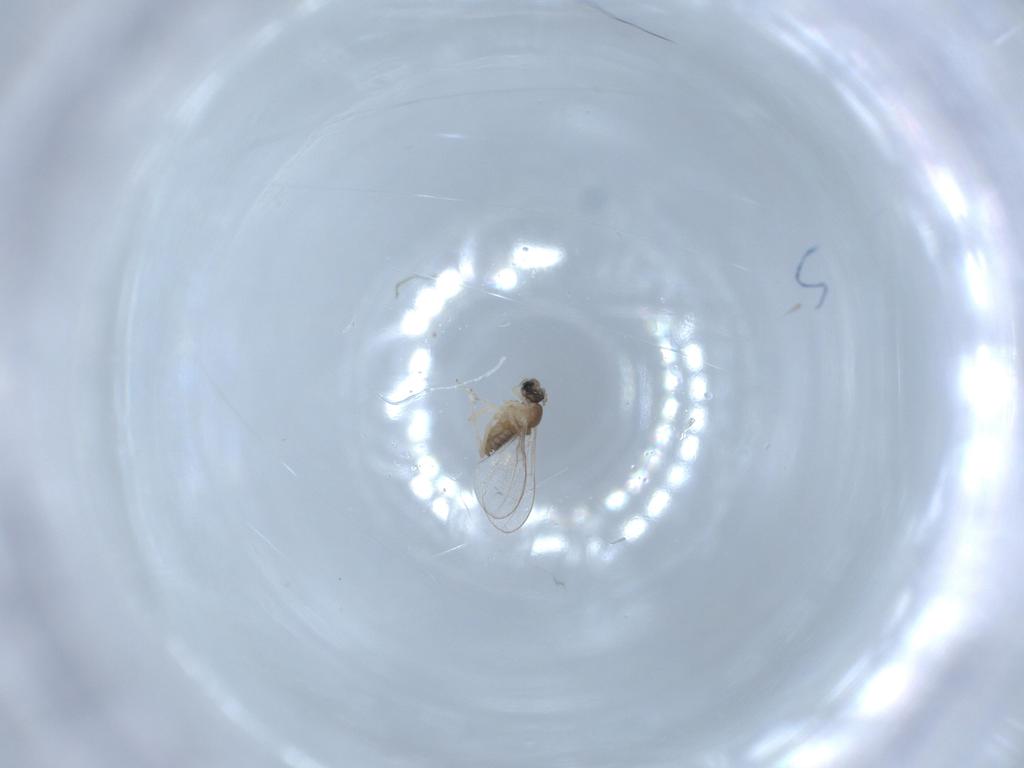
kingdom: Animalia
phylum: Arthropoda
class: Insecta
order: Diptera
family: Cecidomyiidae
